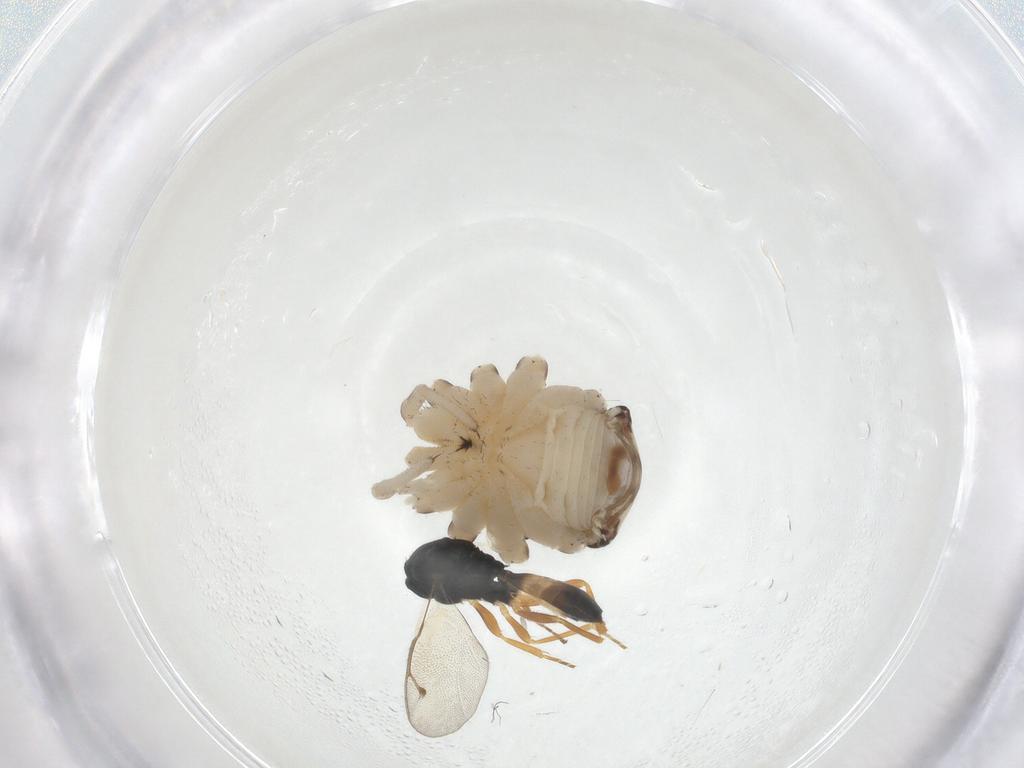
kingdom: Animalia
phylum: Arthropoda
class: Insecta
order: Hymenoptera
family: Pteromalidae
